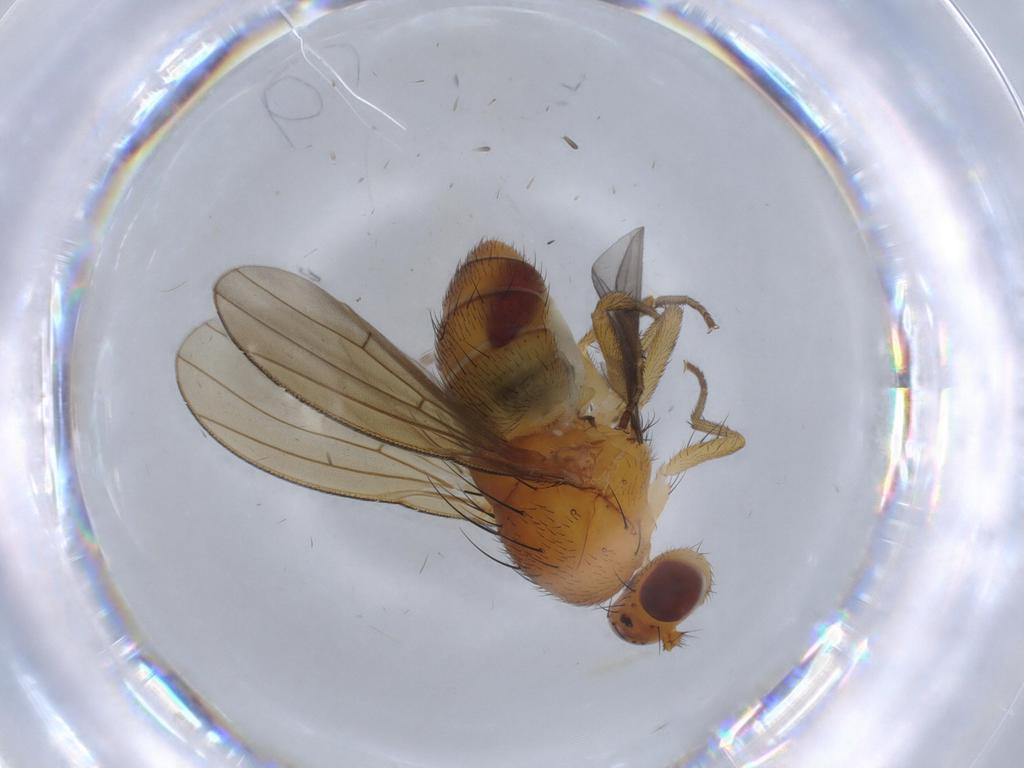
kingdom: Animalia
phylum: Arthropoda
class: Insecta
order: Diptera
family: Lauxaniidae
